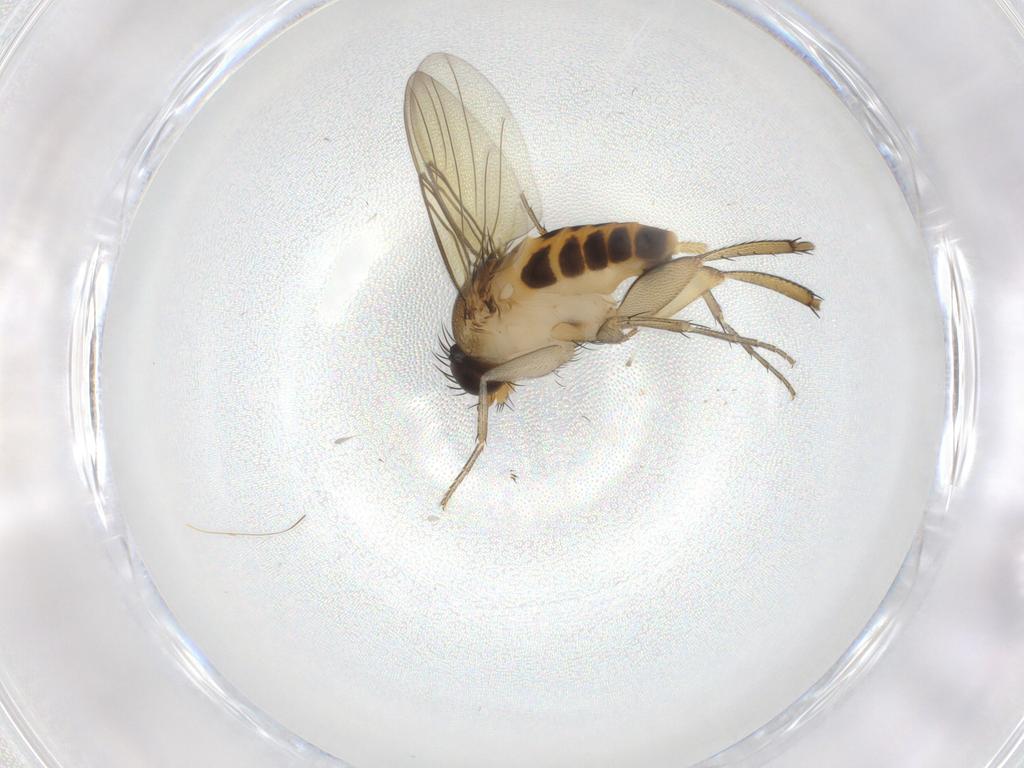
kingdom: Animalia
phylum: Arthropoda
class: Insecta
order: Diptera
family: Phoridae
